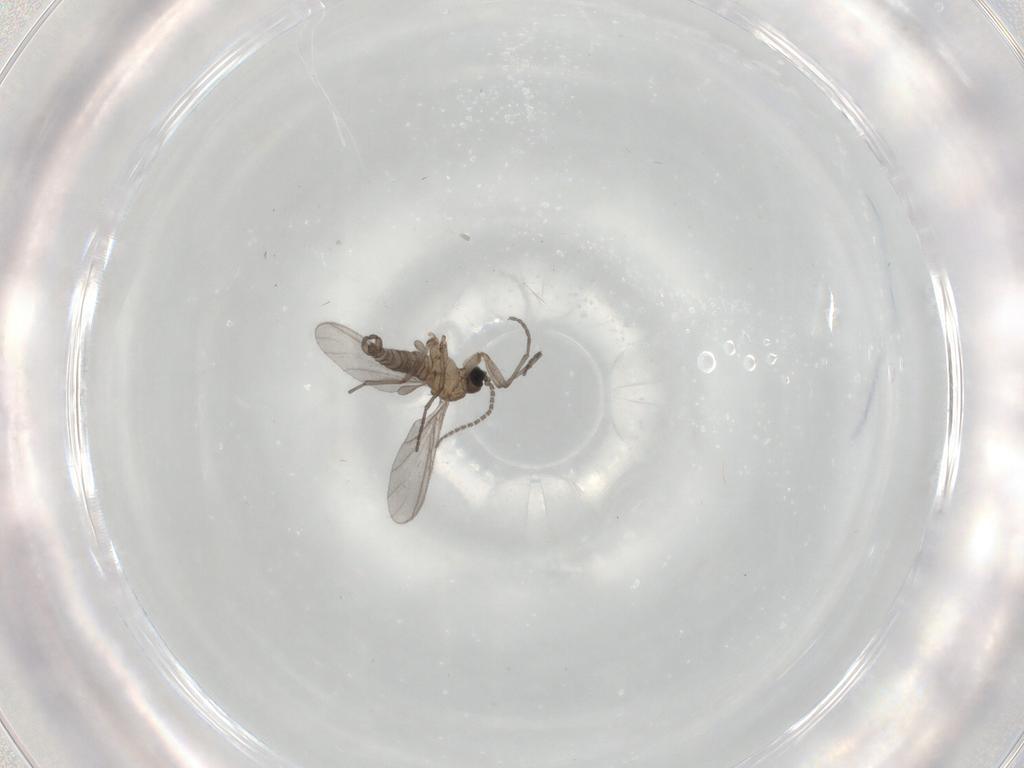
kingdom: Animalia
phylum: Arthropoda
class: Insecta
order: Diptera
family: Sciaridae
